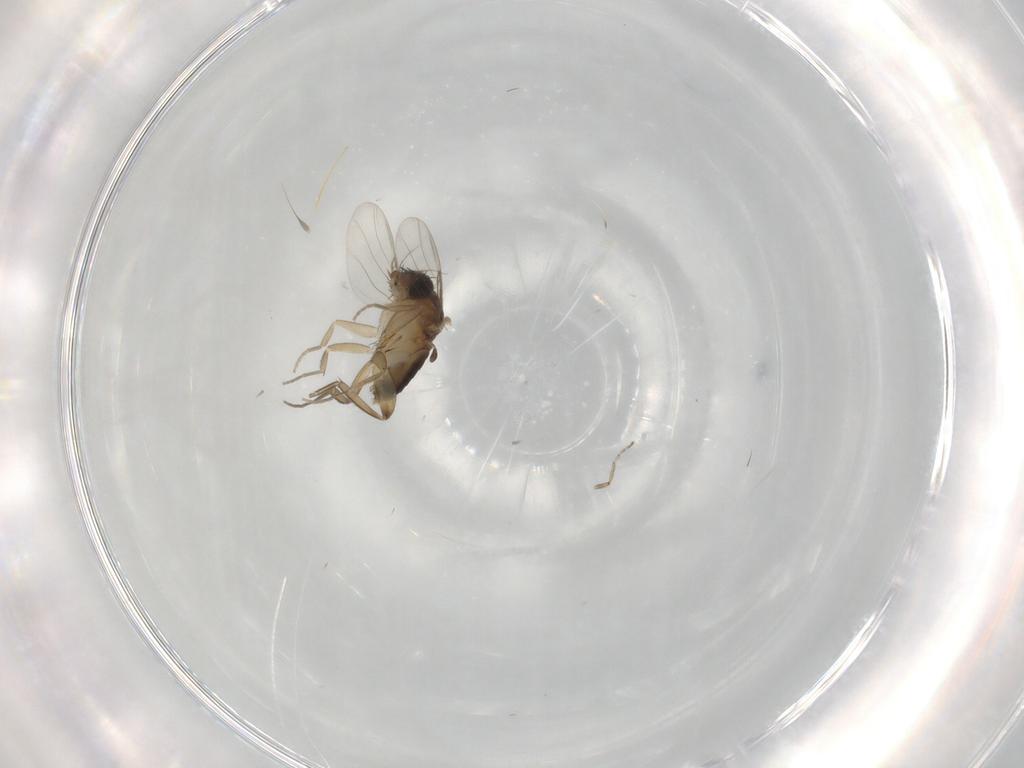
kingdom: Animalia
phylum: Arthropoda
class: Insecta
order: Diptera
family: Phoridae
